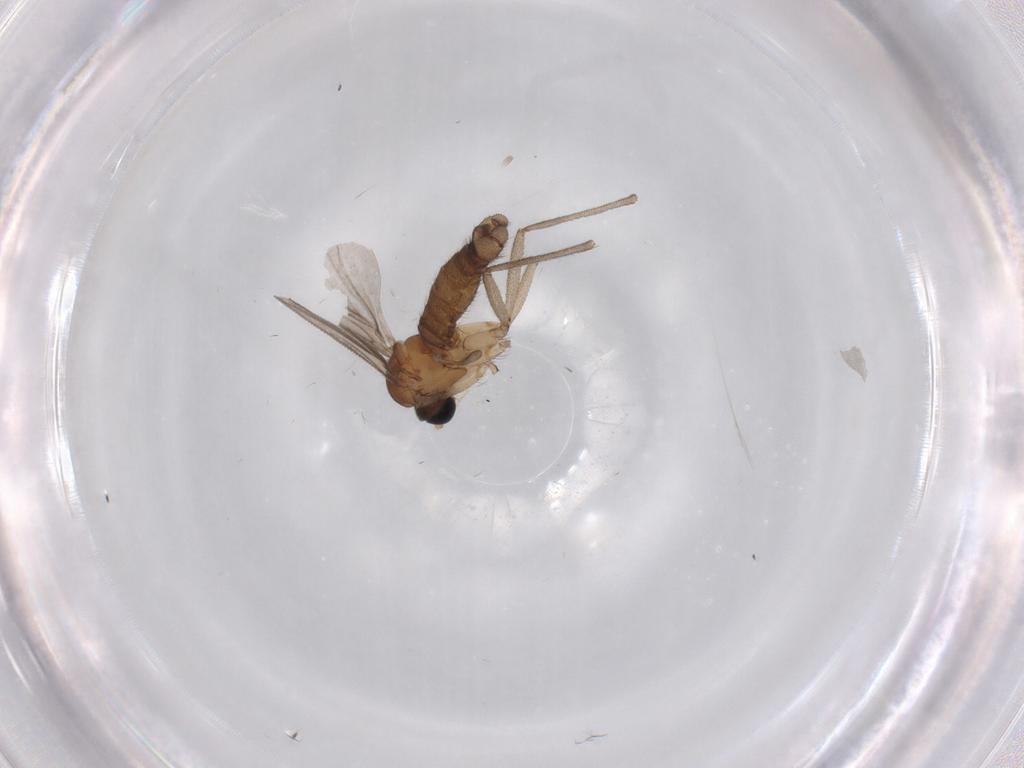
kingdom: Animalia
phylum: Arthropoda
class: Insecta
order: Diptera
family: Sciaridae
